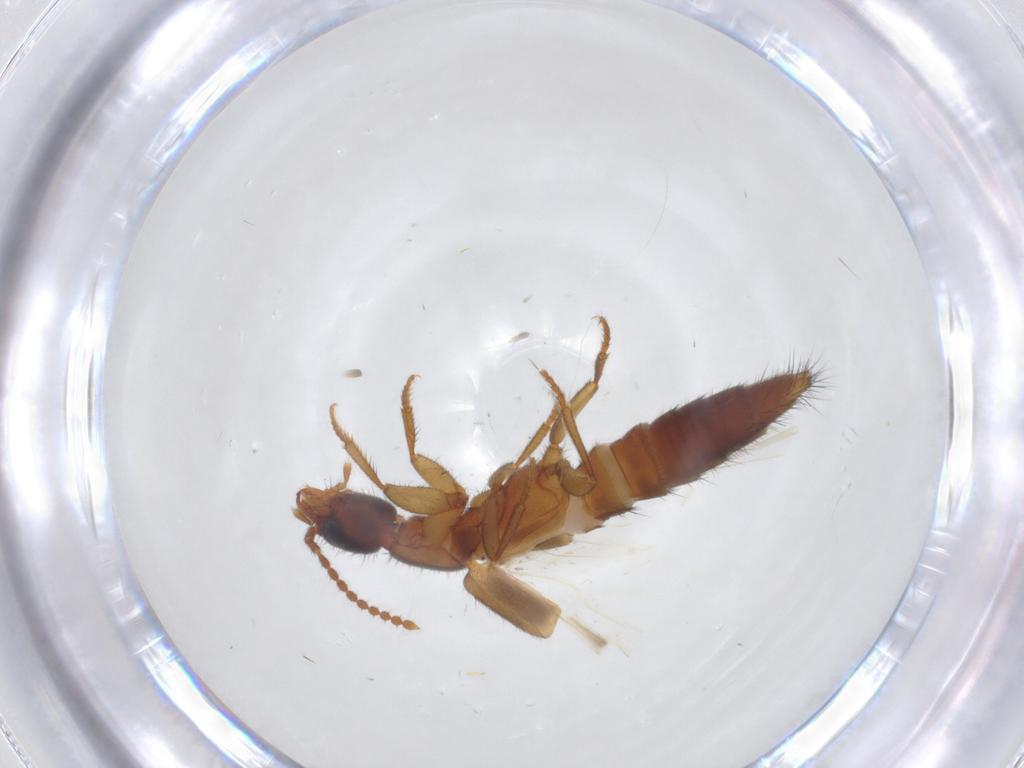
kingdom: Animalia
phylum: Arthropoda
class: Insecta
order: Coleoptera
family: Staphylinidae
